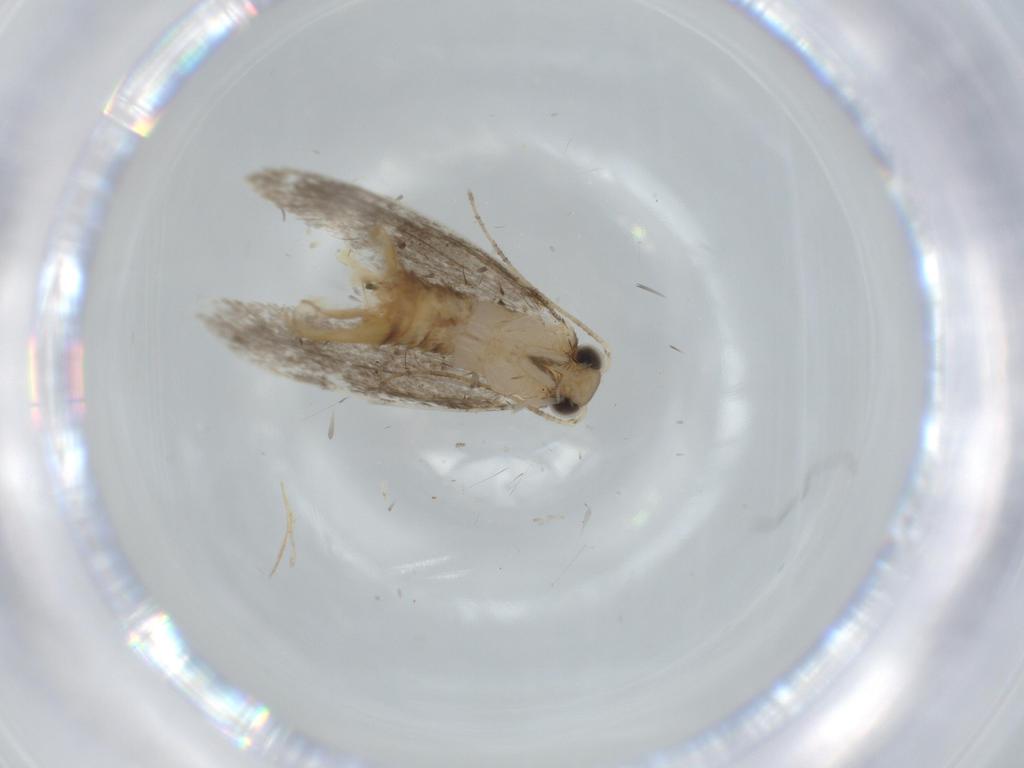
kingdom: Animalia
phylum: Arthropoda
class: Insecta
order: Lepidoptera
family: Tineidae
